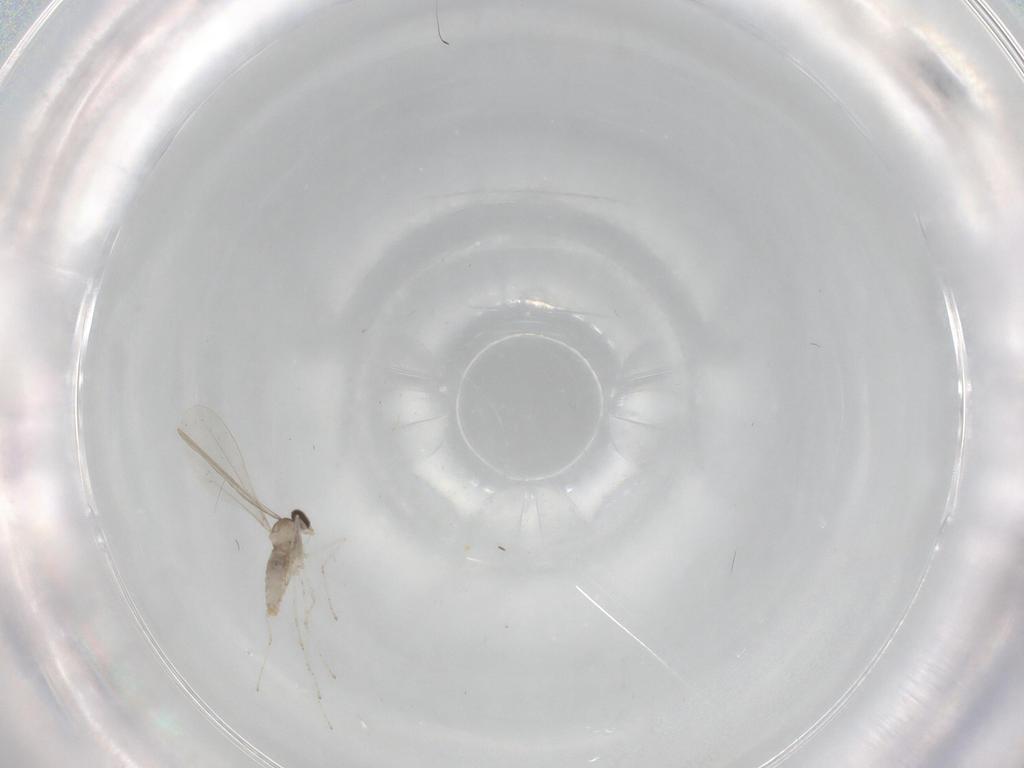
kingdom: Animalia
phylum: Arthropoda
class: Insecta
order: Diptera
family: Cecidomyiidae
